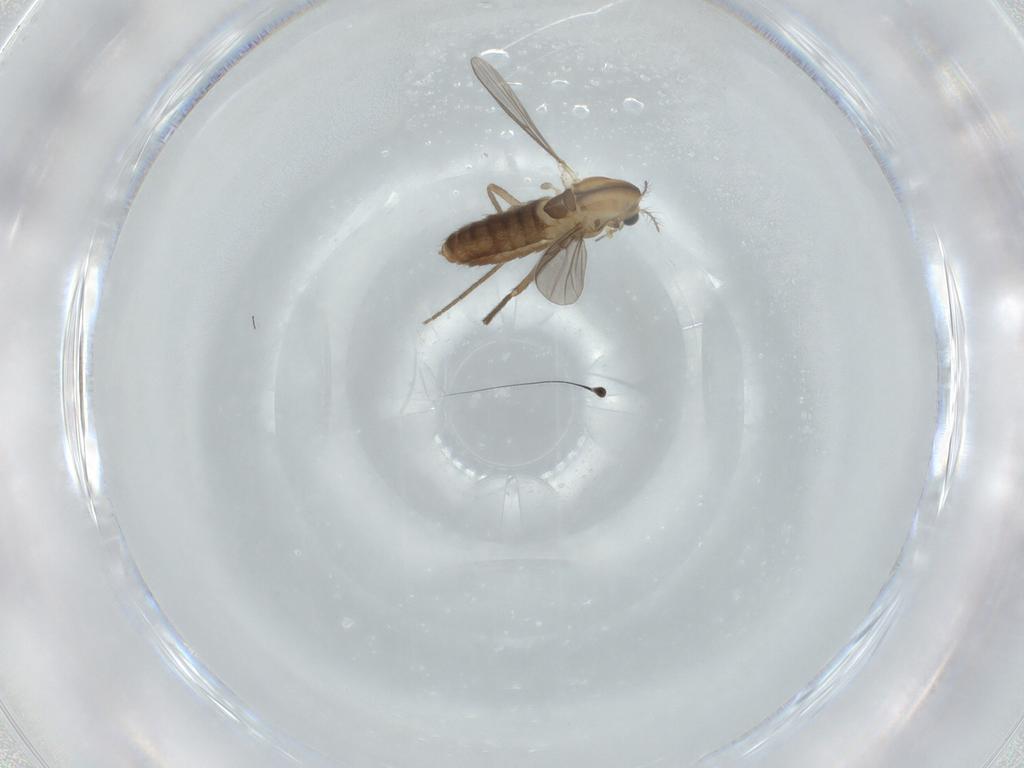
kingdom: Animalia
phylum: Arthropoda
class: Insecta
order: Diptera
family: Chironomidae
